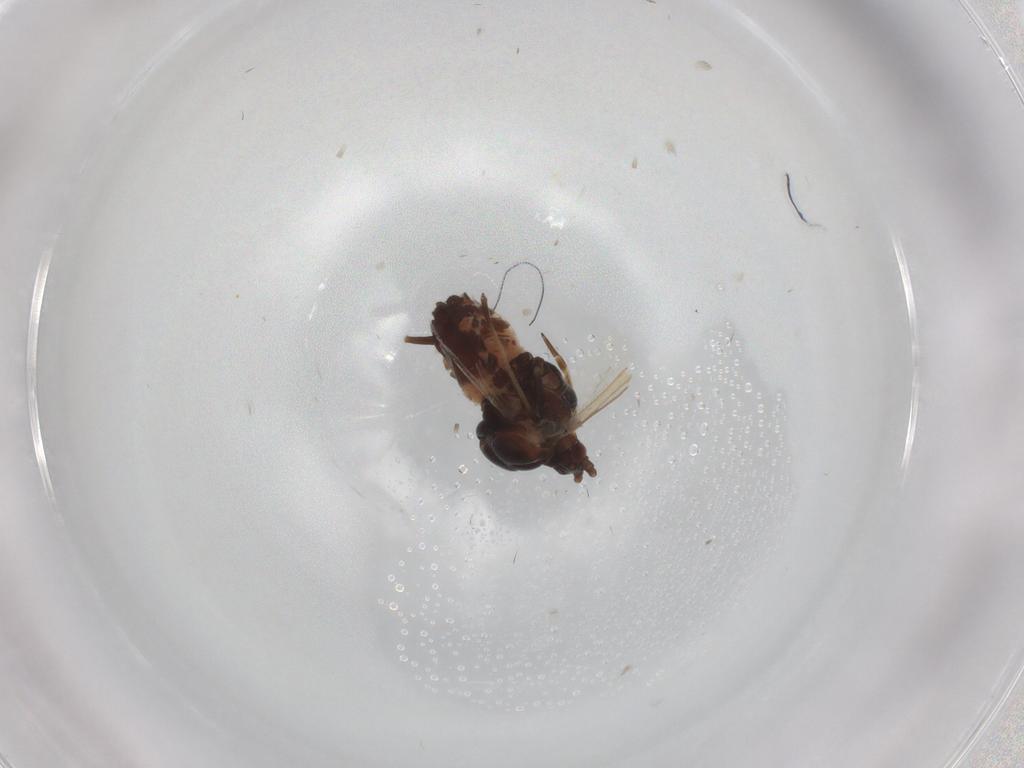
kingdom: Animalia
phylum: Arthropoda
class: Insecta
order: Hemiptera
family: Aphididae
